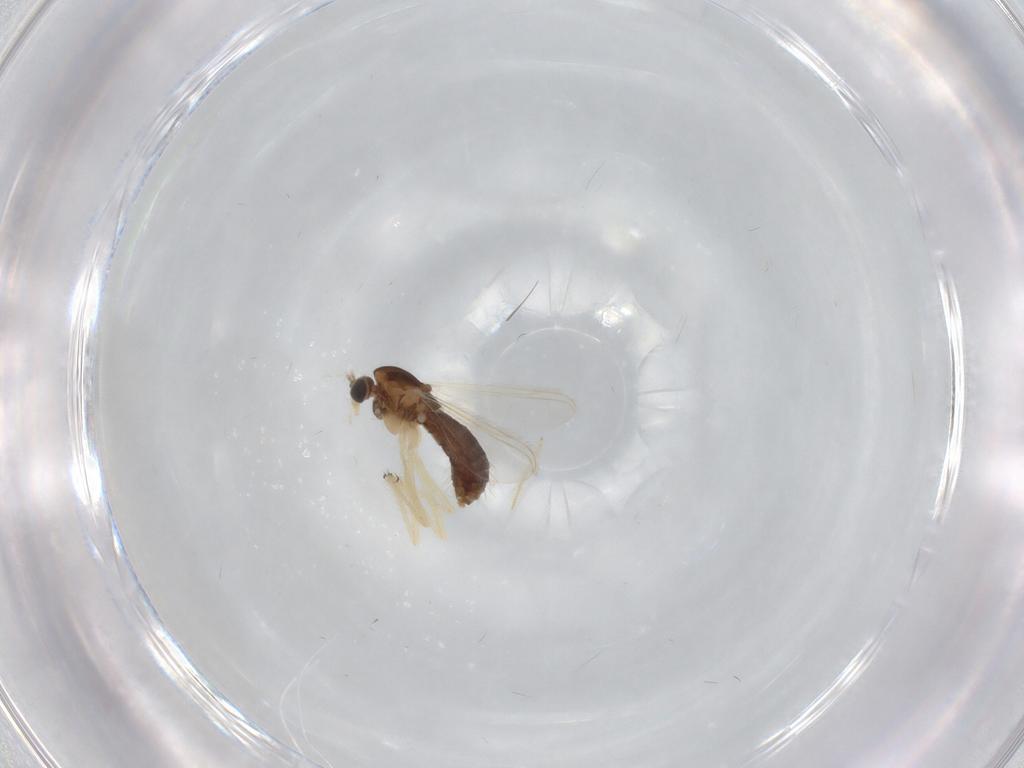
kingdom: Animalia
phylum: Arthropoda
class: Insecta
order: Diptera
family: Chironomidae
